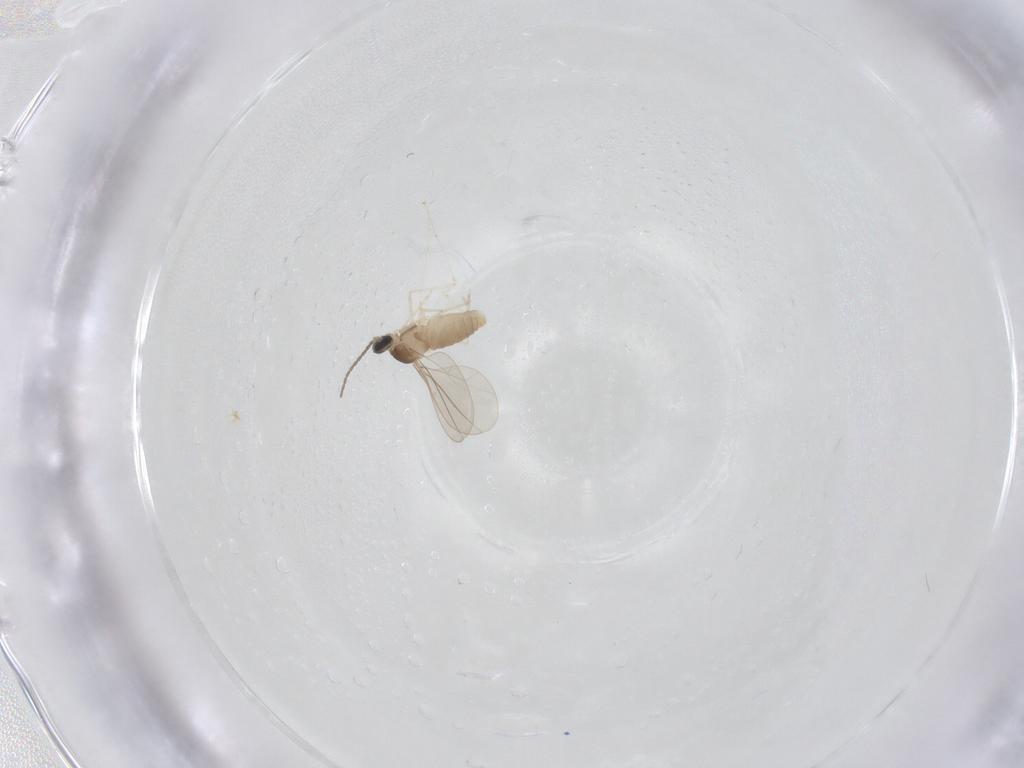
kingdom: Animalia
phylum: Arthropoda
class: Insecta
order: Diptera
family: Cecidomyiidae
